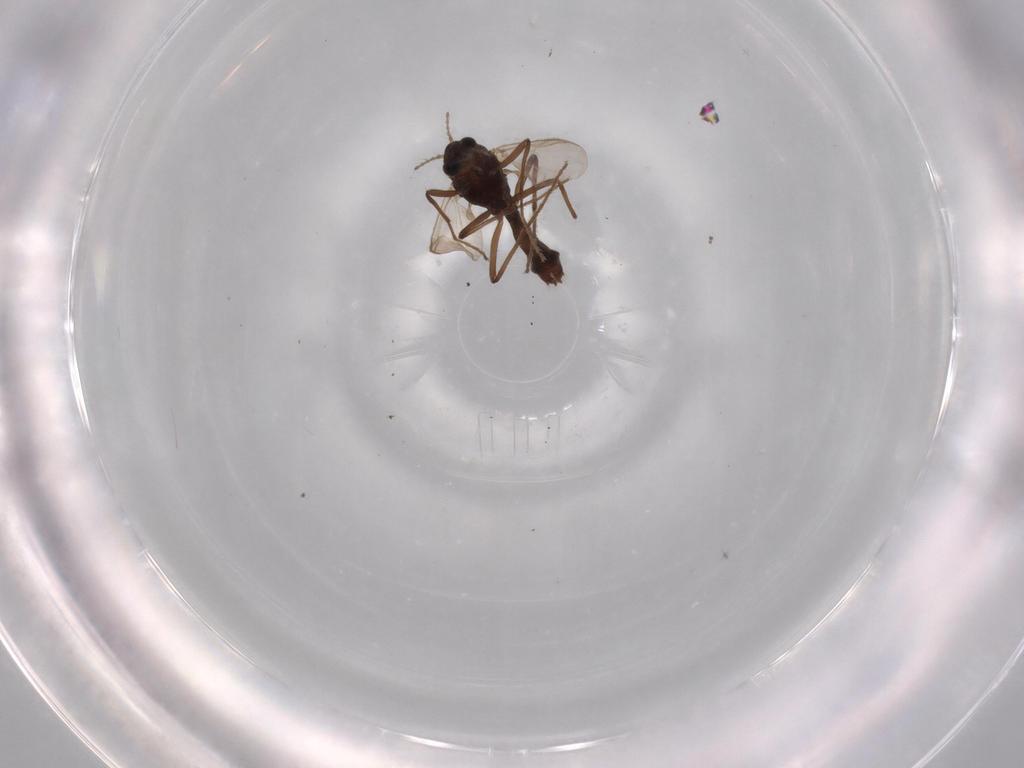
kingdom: Animalia
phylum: Arthropoda
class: Insecta
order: Diptera
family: Chironomidae
